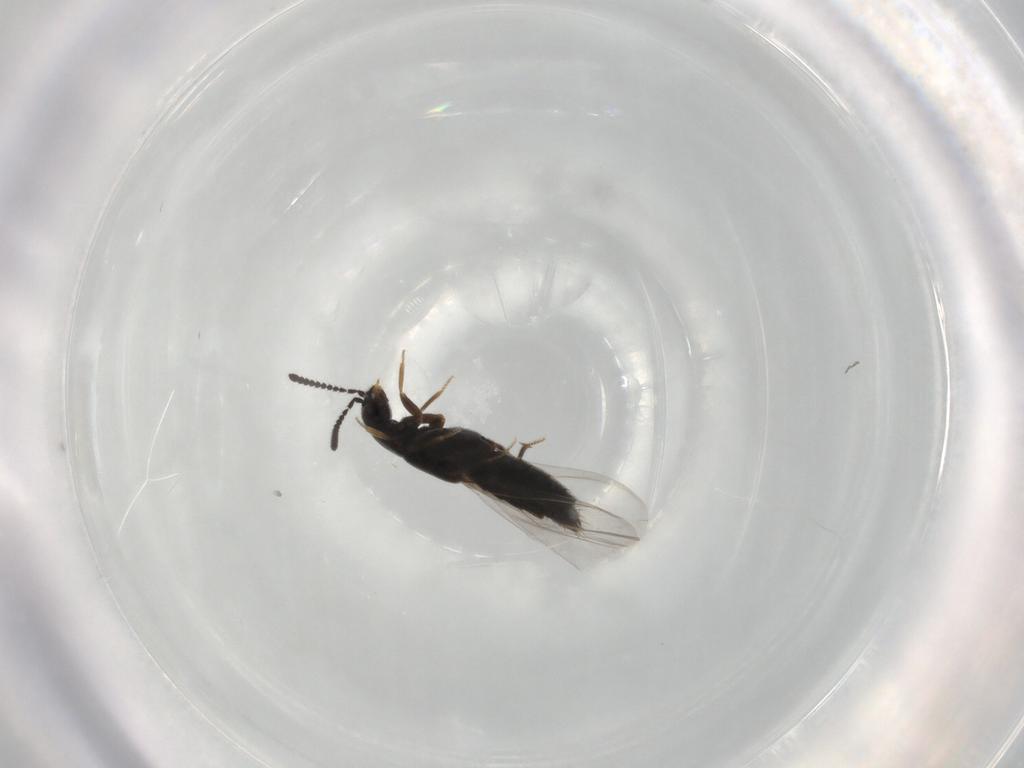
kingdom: Animalia
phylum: Arthropoda
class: Insecta
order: Coleoptera
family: Staphylinidae
